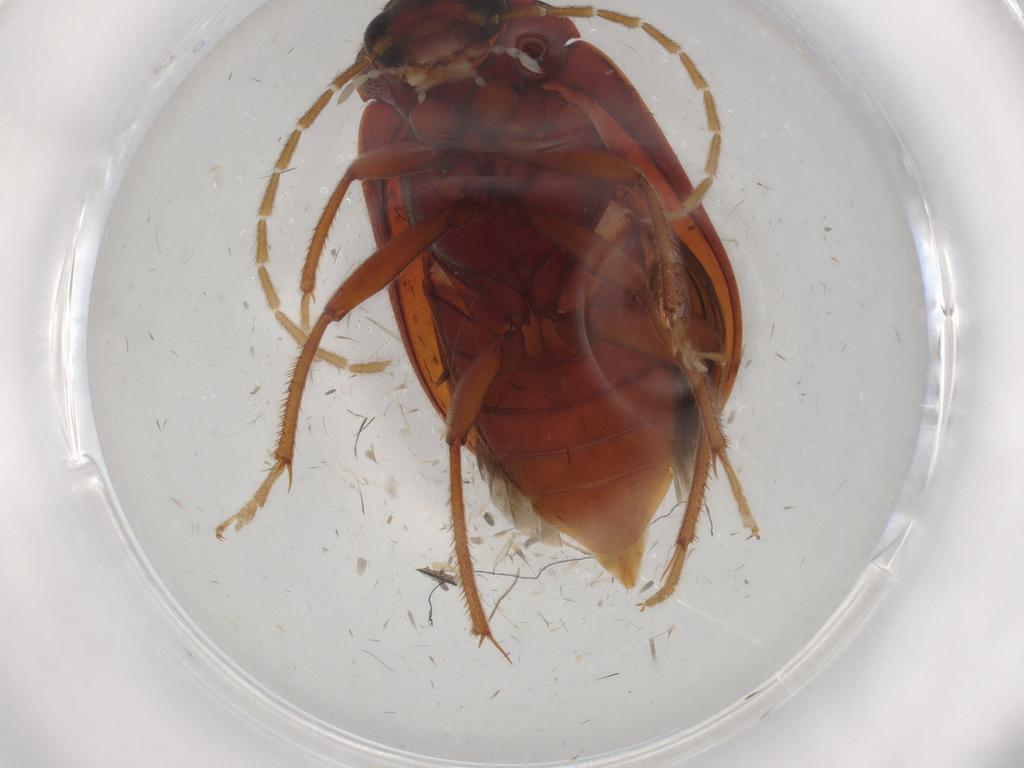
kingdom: Animalia
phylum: Arthropoda
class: Insecta
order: Coleoptera
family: Ptilodactylidae
